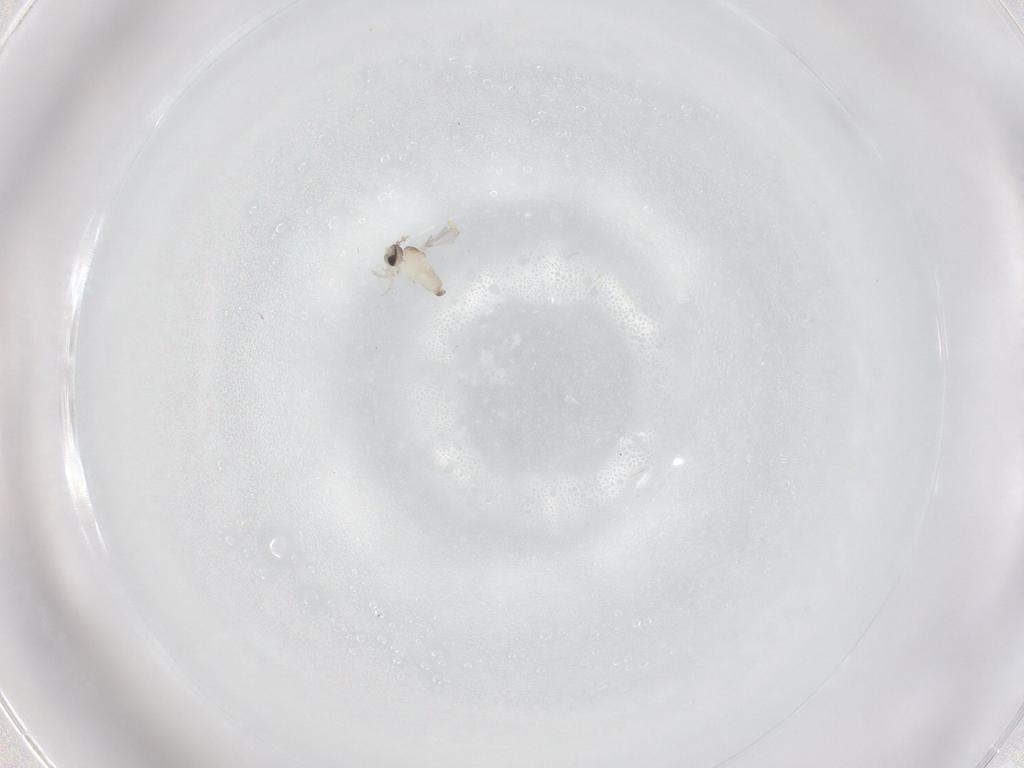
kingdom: Animalia
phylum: Arthropoda
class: Insecta
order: Diptera
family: Cecidomyiidae
